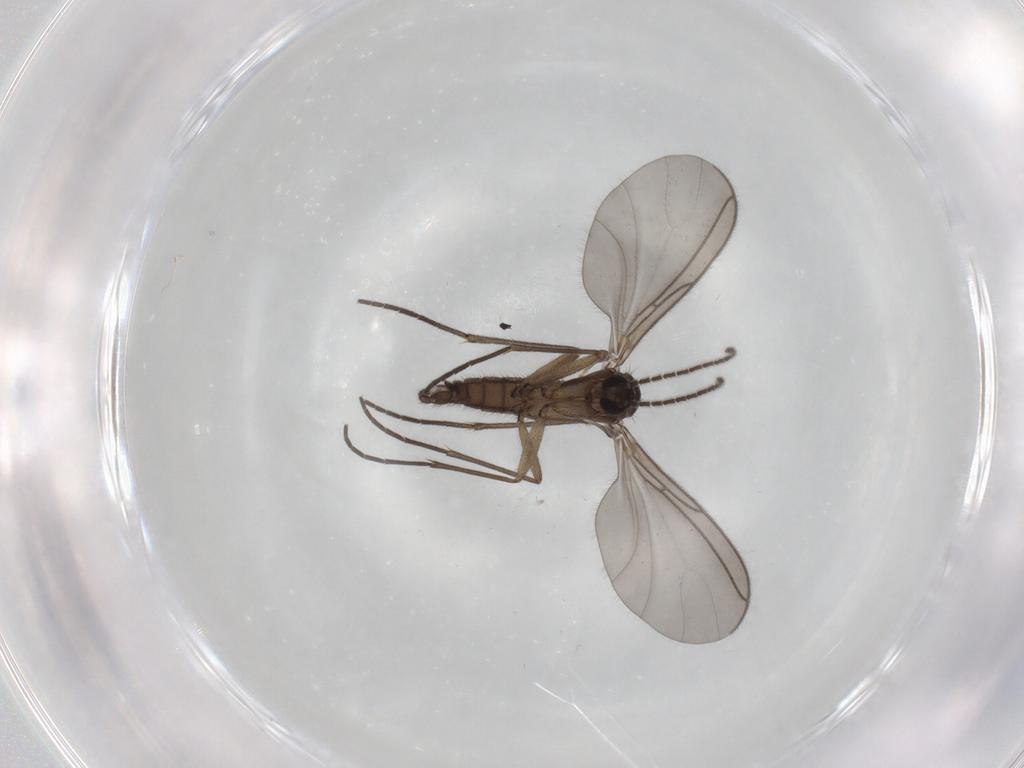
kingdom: Animalia
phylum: Arthropoda
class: Insecta
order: Diptera
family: Sciaridae
